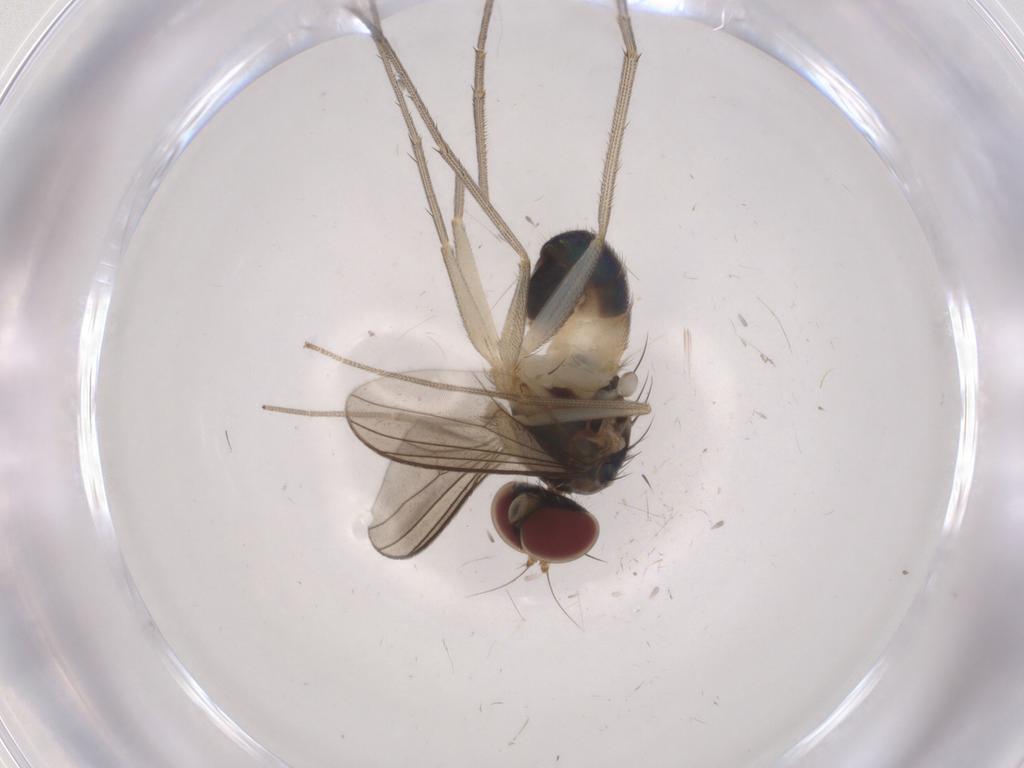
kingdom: Animalia
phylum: Arthropoda
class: Insecta
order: Diptera
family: Dolichopodidae
